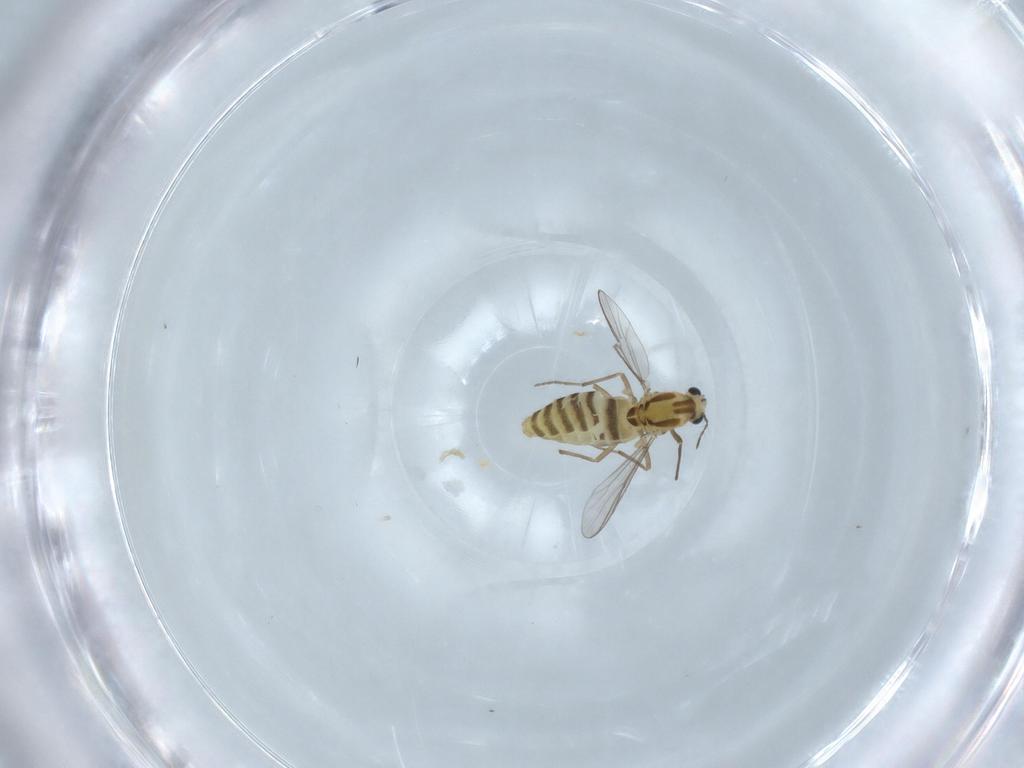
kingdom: Animalia
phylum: Arthropoda
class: Insecta
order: Diptera
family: Chironomidae
